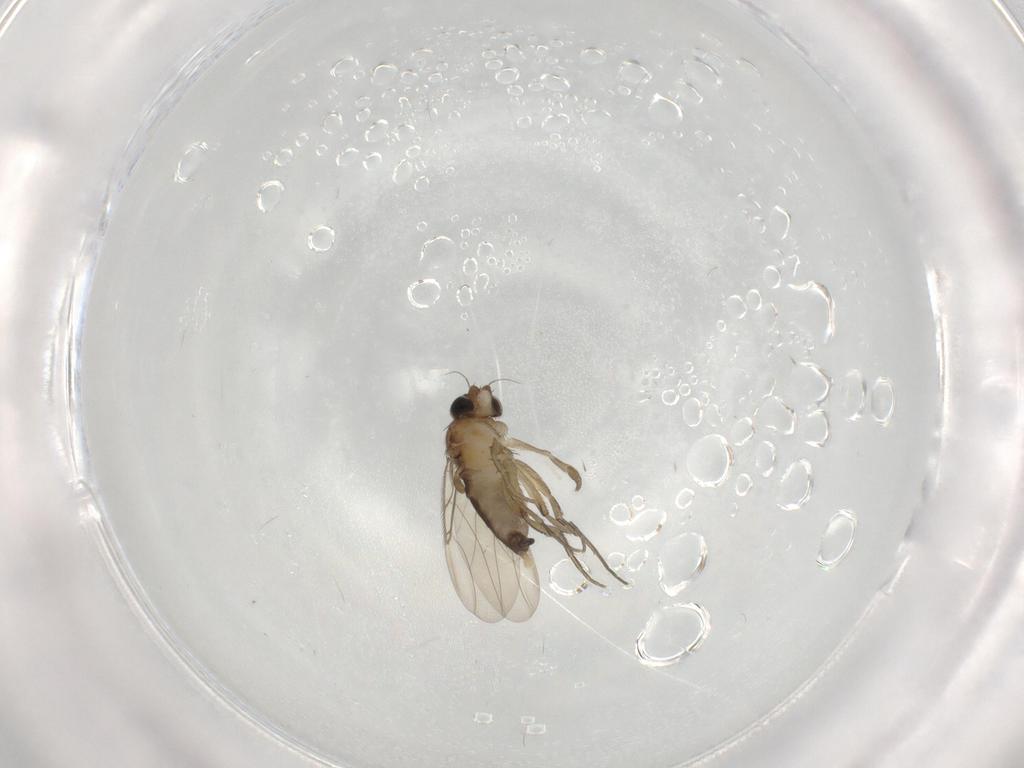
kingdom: Animalia
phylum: Arthropoda
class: Insecta
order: Diptera
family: Phoridae
